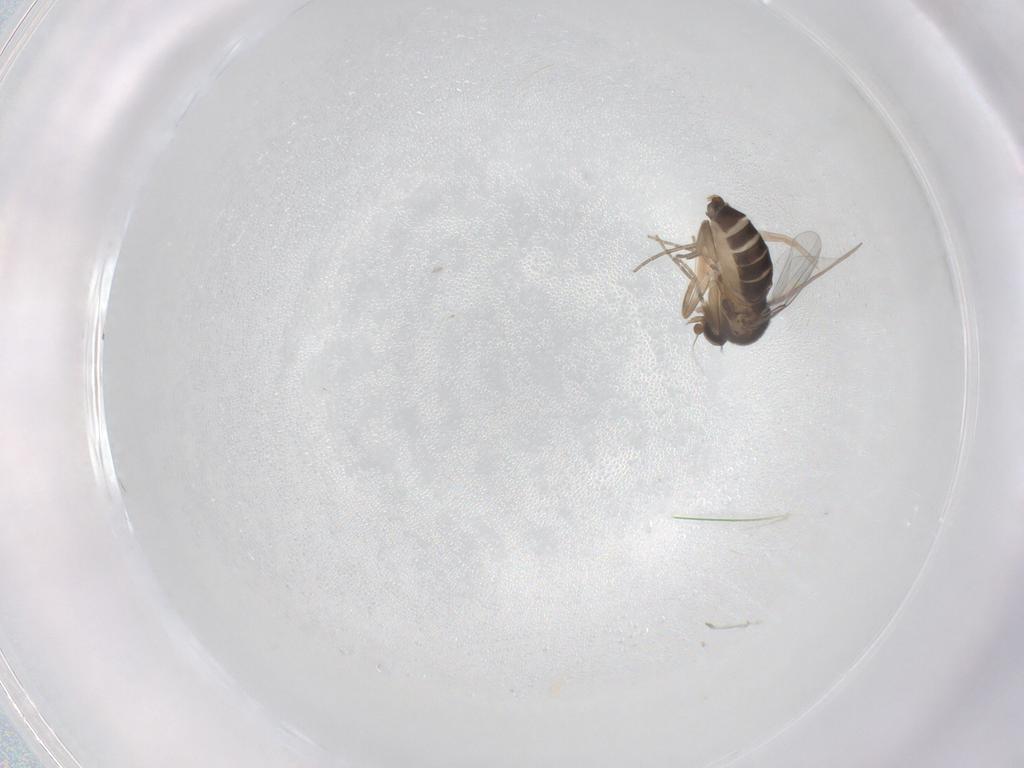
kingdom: Animalia
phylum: Arthropoda
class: Insecta
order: Diptera
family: Phoridae
